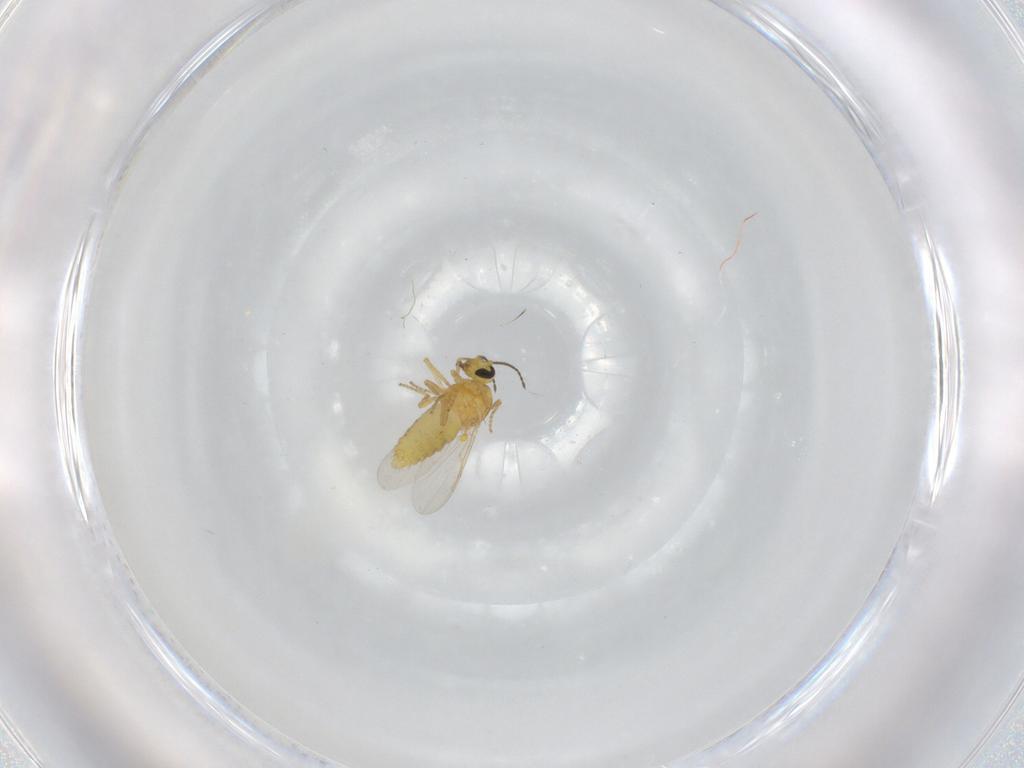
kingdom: Animalia
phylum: Arthropoda
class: Insecta
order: Diptera
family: Ceratopogonidae
